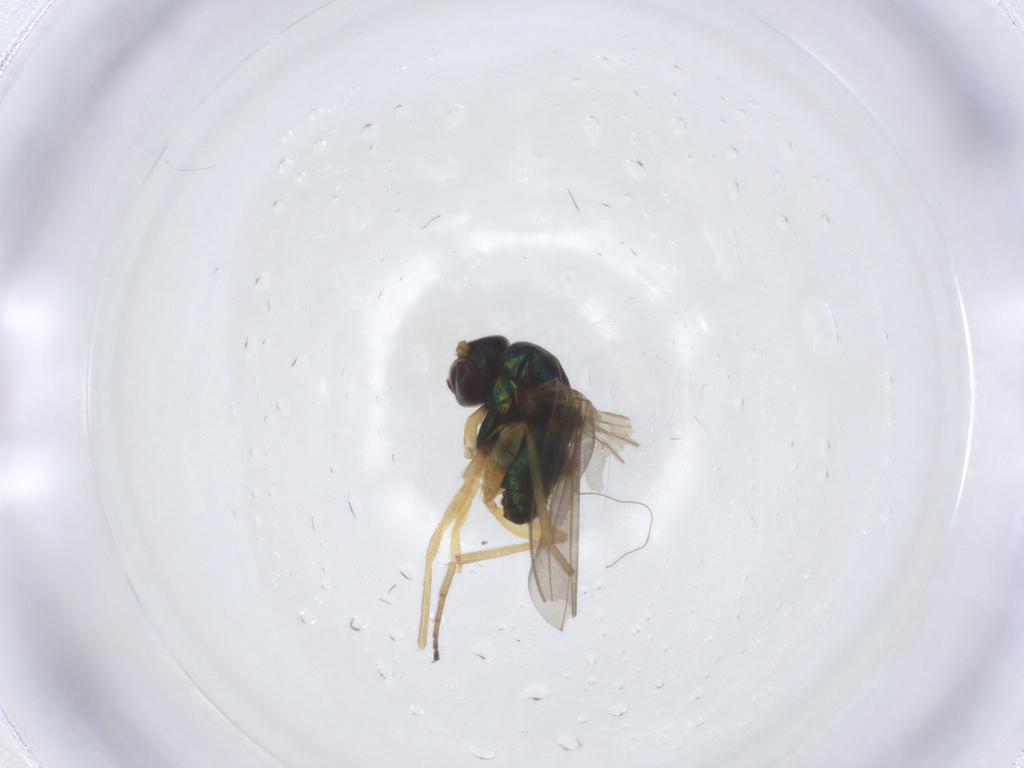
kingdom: Animalia
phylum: Arthropoda
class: Insecta
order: Diptera
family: Dolichopodidae
